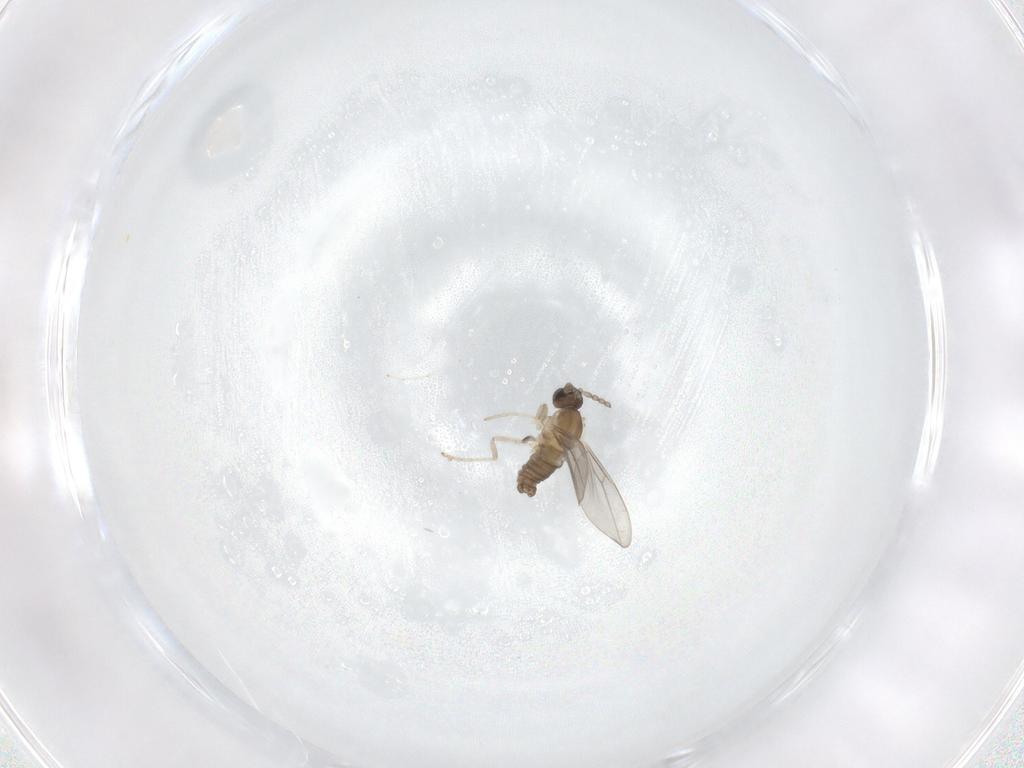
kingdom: Animalia
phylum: Arthropoda
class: Insecta
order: Diptera
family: Cecidomyiidae
